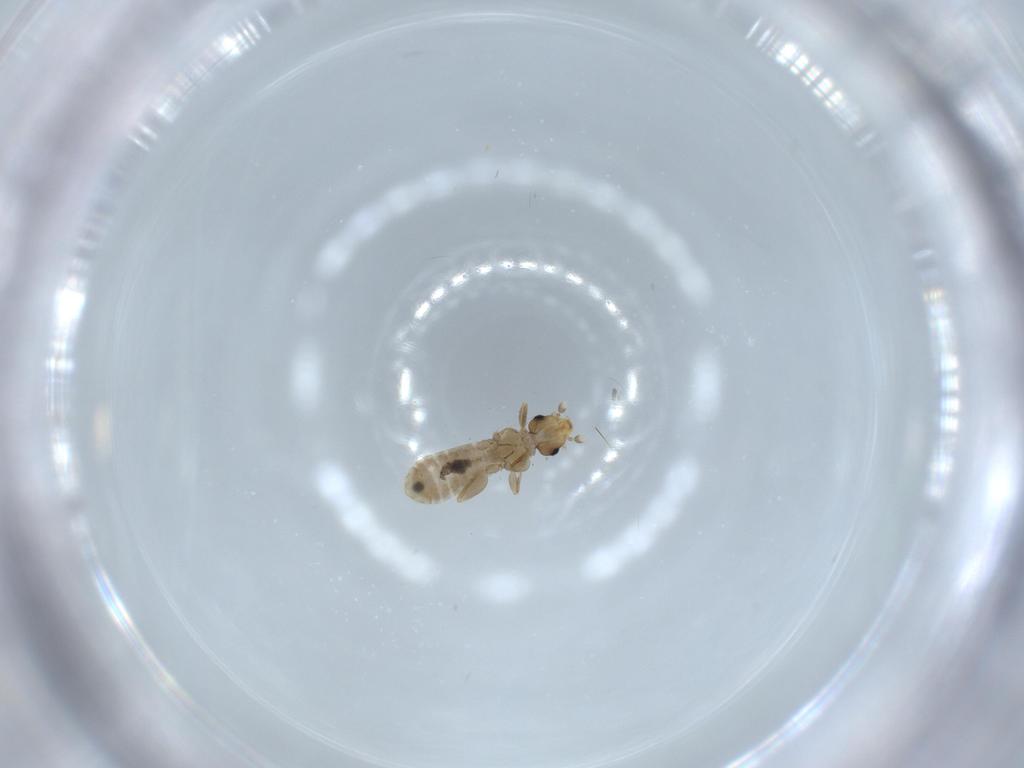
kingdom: Animalia
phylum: Arthropoda
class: Insecta
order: Psocodea
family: Liposcelididae
